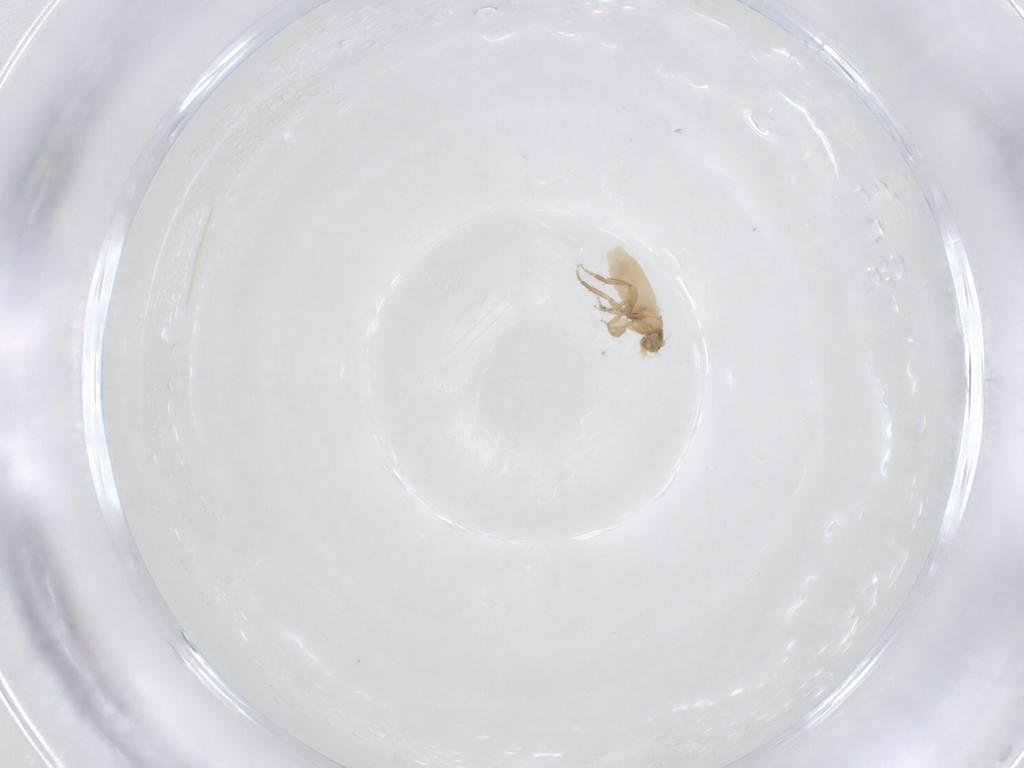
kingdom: Animalia
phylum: Arthropoda
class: Insecta
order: Diptera
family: Phoridae
